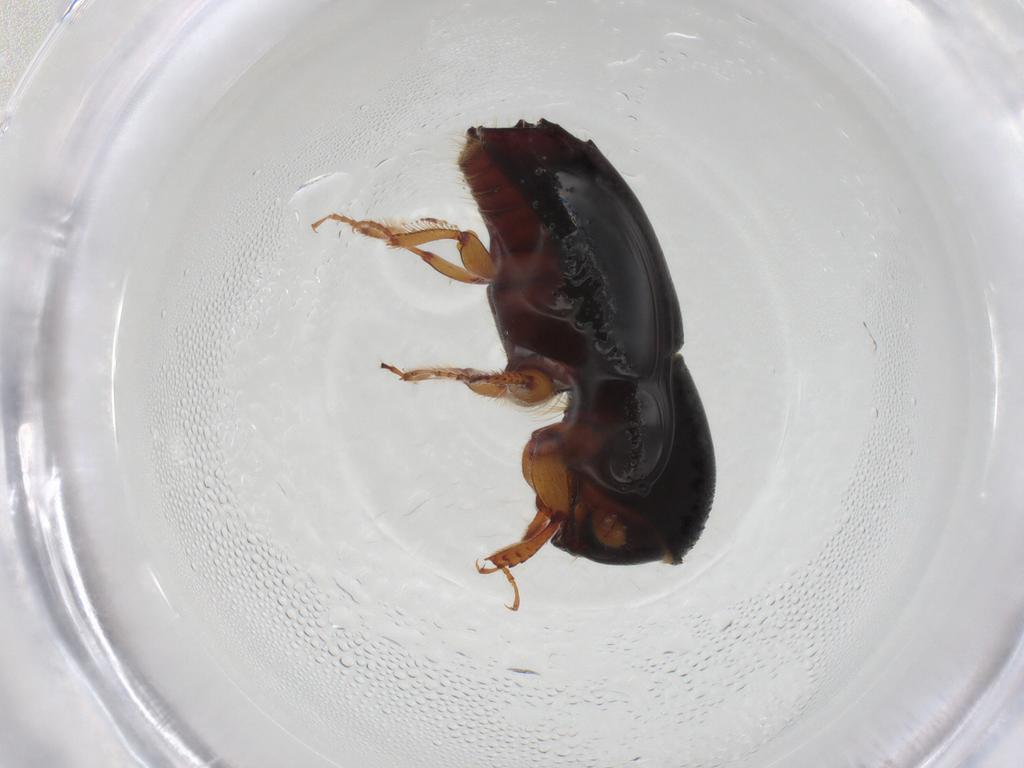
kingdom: Animalia
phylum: Arthropoda
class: Insecta
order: Coleoptera
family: Curculionidae
